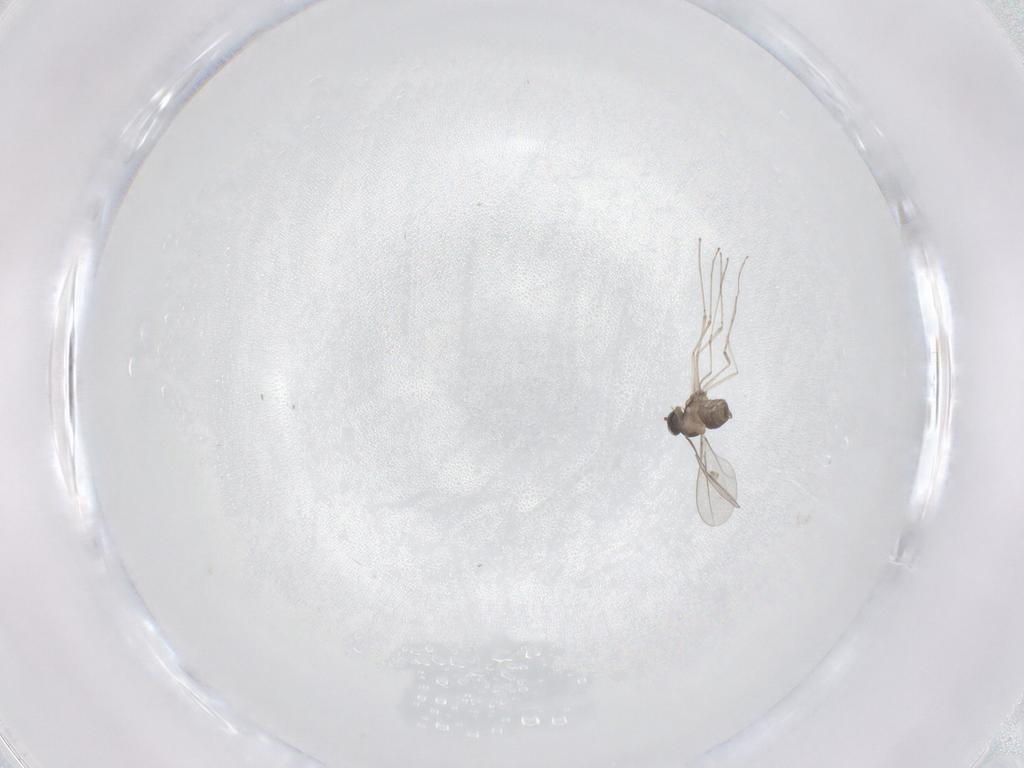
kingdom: Animalia
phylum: Arthropoda
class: Insecta
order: Diptera
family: Cecidomyiidae
